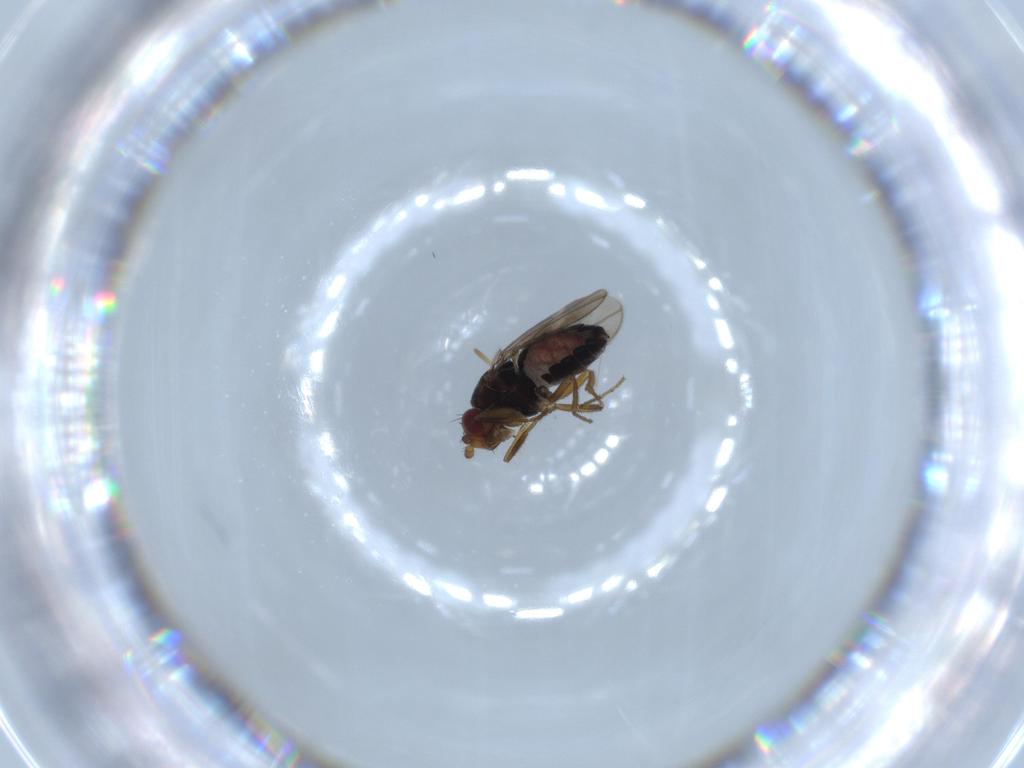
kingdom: Animalia
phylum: Arthropoda
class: Insecta
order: Diptera
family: Sphaeroceridae
